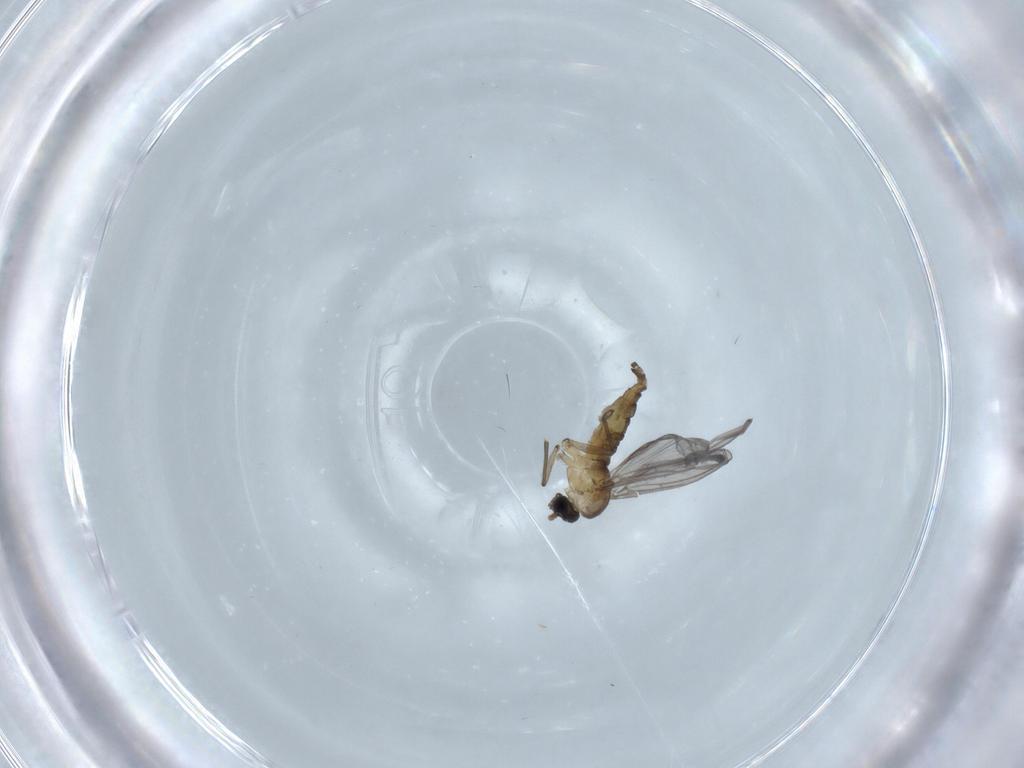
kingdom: Animalia
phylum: Arthropoda
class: Insecta
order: Diptera
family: Sciaridae
